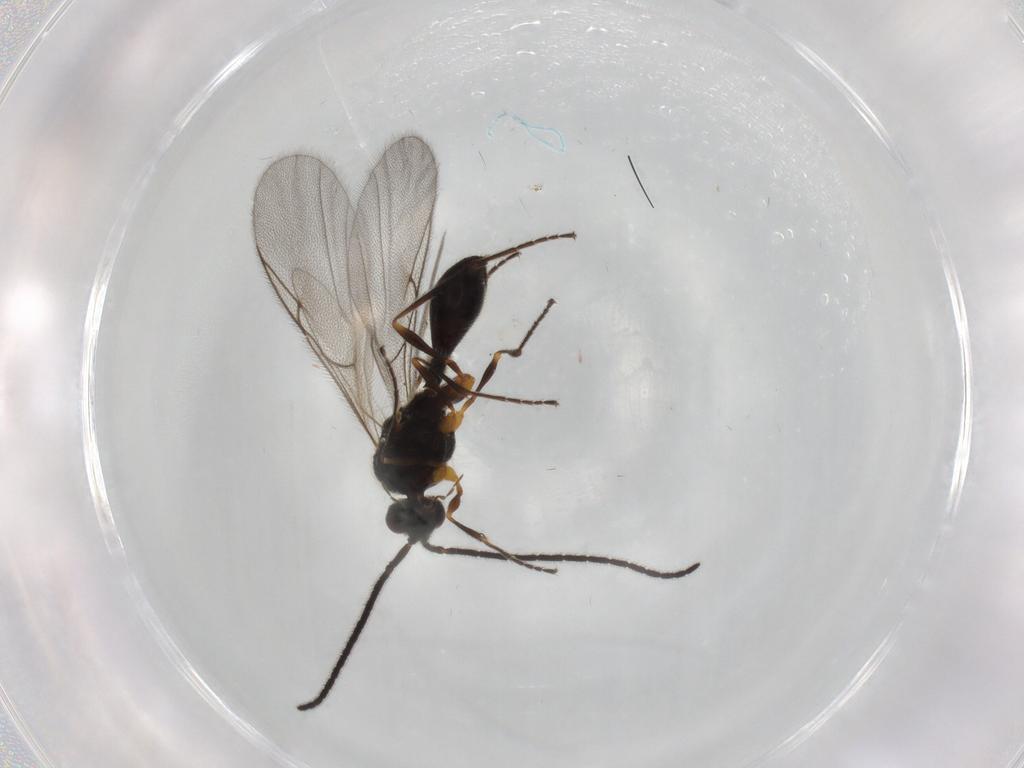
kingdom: Animalia
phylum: Arthropoda
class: Insecta
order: Hymenoptera
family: Diapriidae
